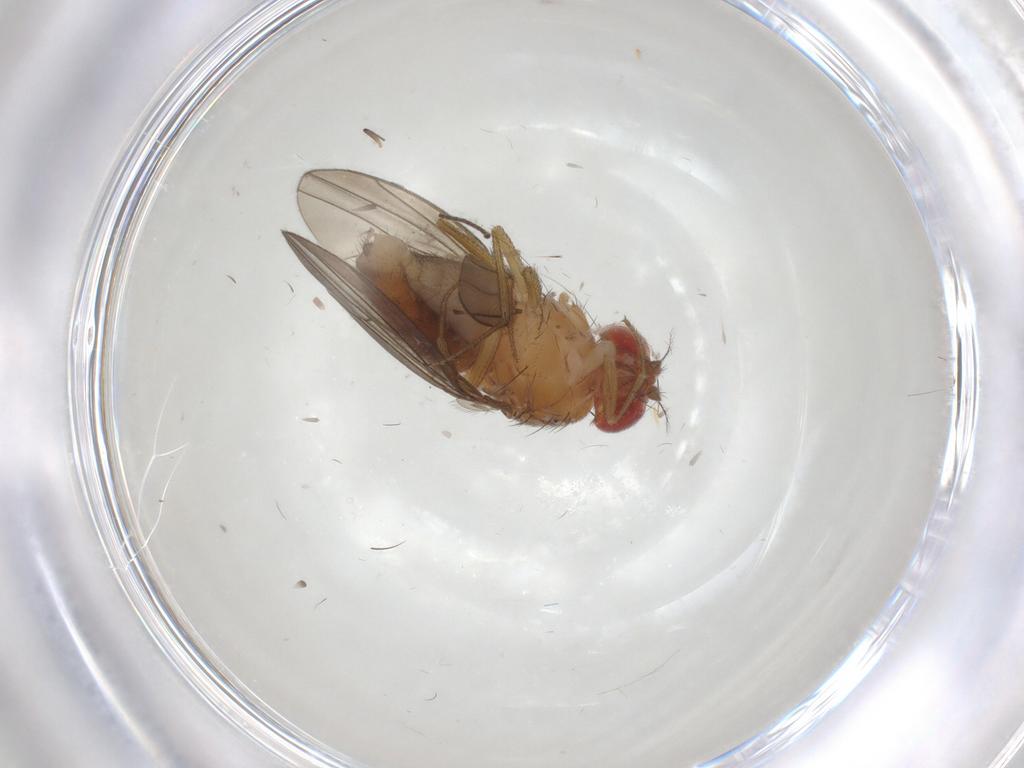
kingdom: Animalia
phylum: Arthropoda
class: Insecta
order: Diptera
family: Drosophilidae
